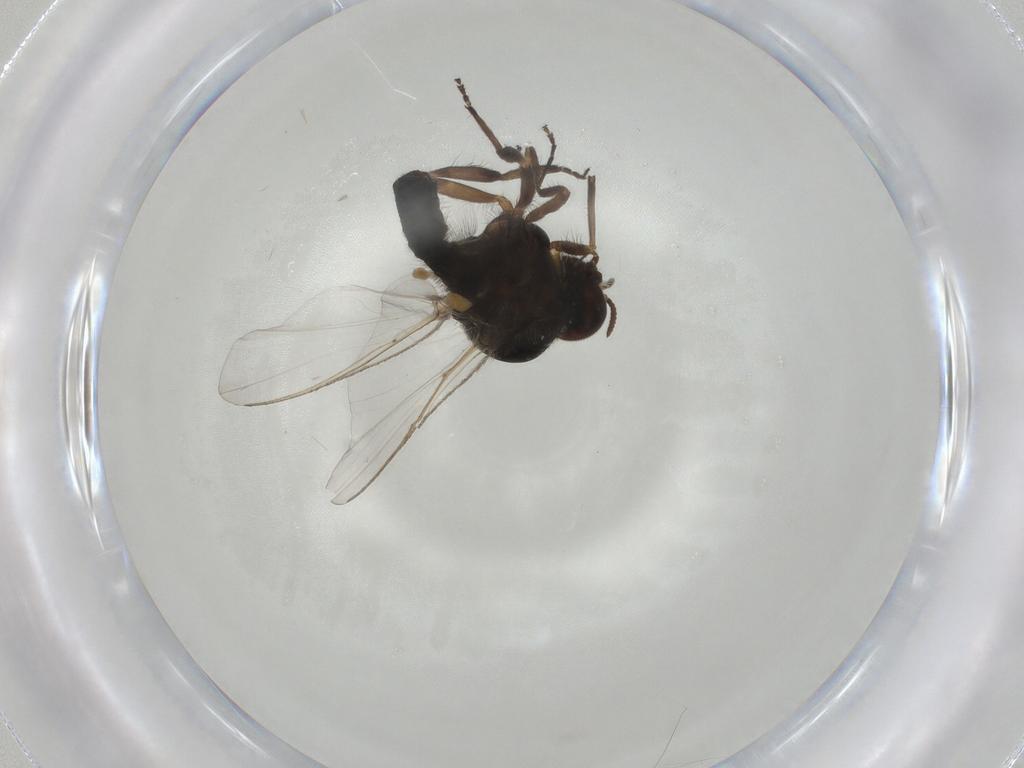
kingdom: Animalia
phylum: Arthropoda
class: Insecta
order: Diptera
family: Chironomidae
